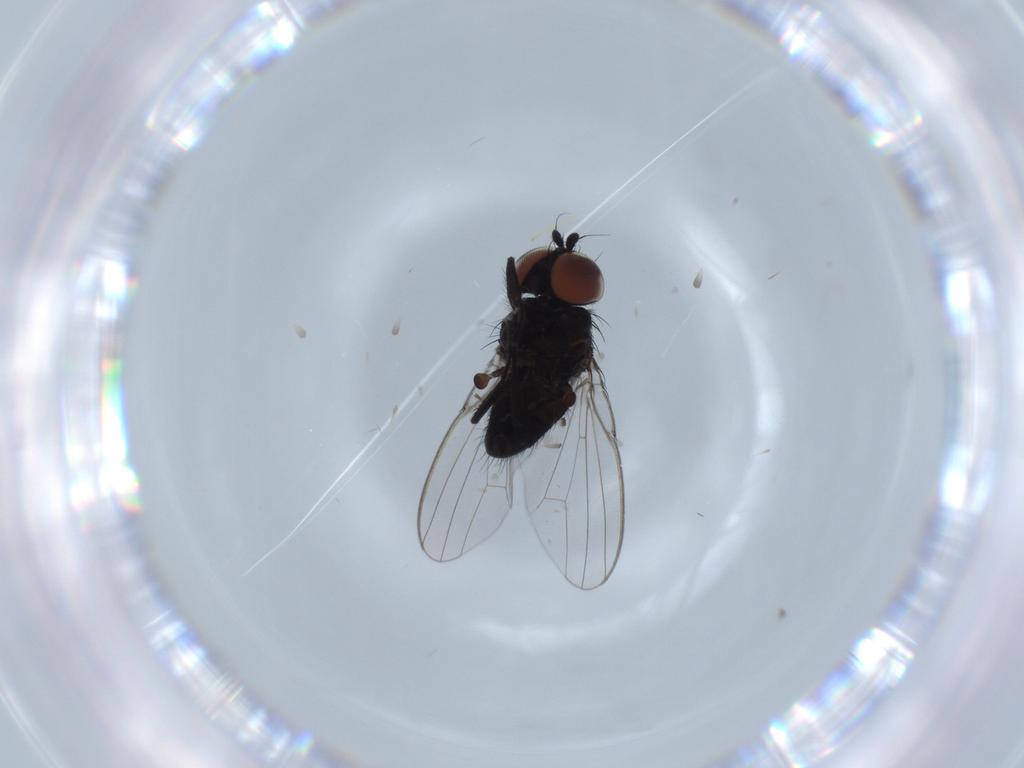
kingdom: Animalia
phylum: Arthropoda
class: Insecta
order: Diptera
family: Milichiidae
